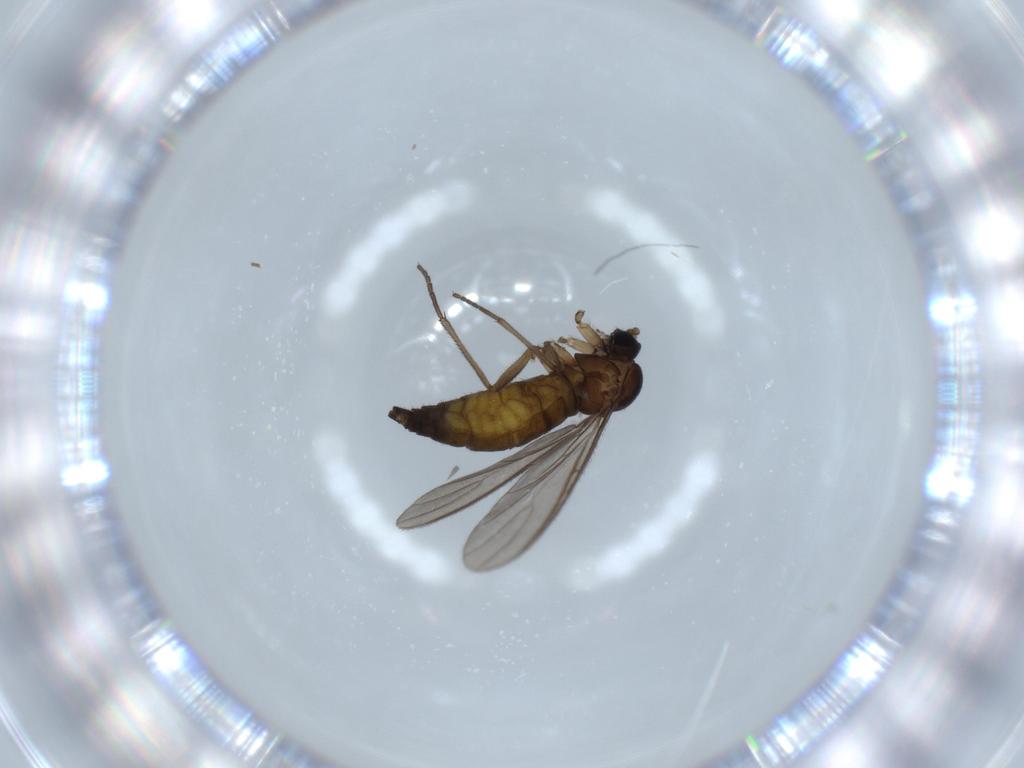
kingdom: Animalia
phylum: Arthropoda
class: Insecta
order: Diptera
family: Sciaridae
